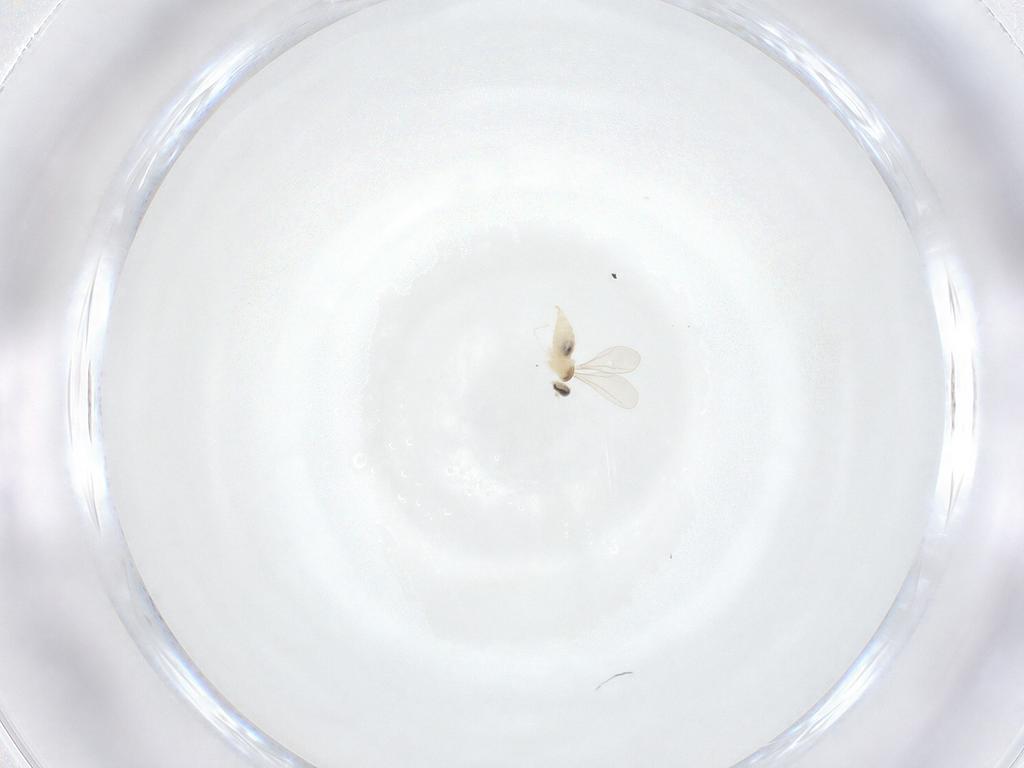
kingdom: Animalia
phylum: Arthropoda
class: Insecta
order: Diptera
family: Cecidomyiidae
